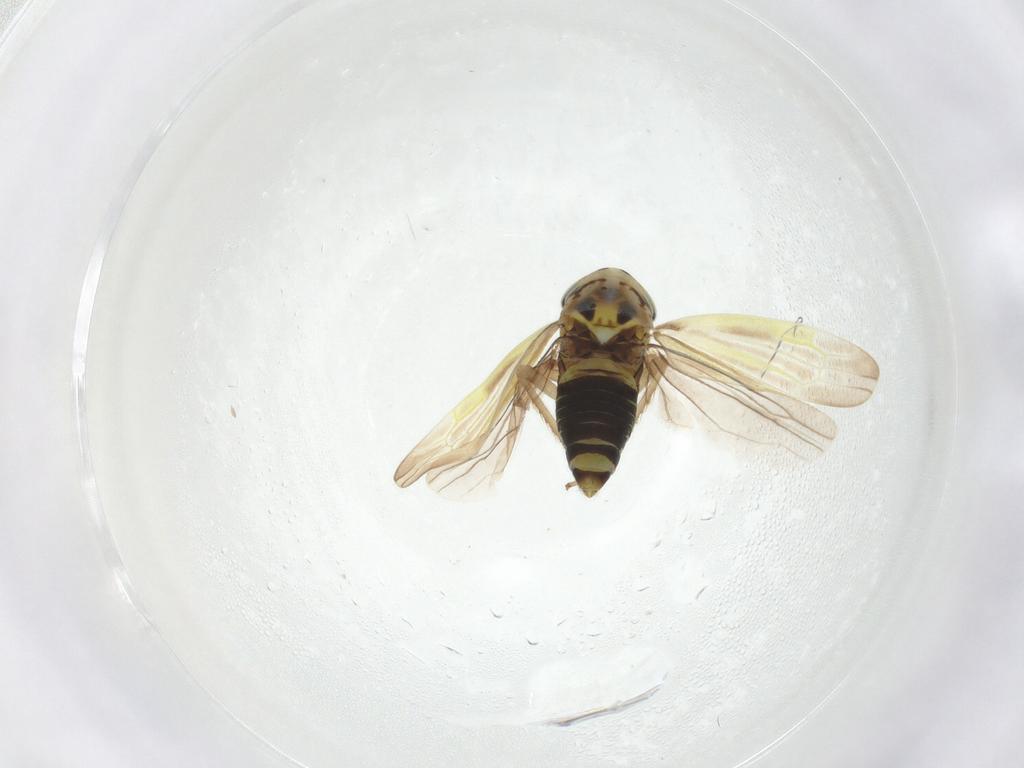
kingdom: Animalia
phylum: Arthropoda
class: Insecta
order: Hemiptera
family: Cicadellidae
